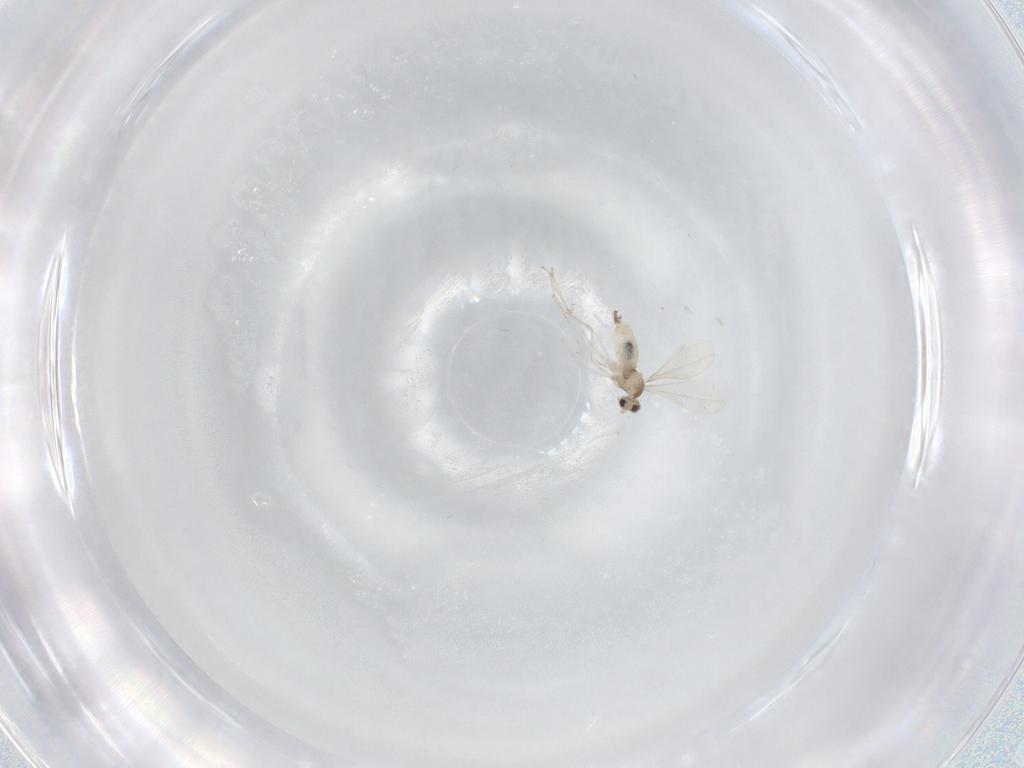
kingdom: Animalia
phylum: Arthropoda
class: Insecta
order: Diptera
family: Cecidomyiidae
